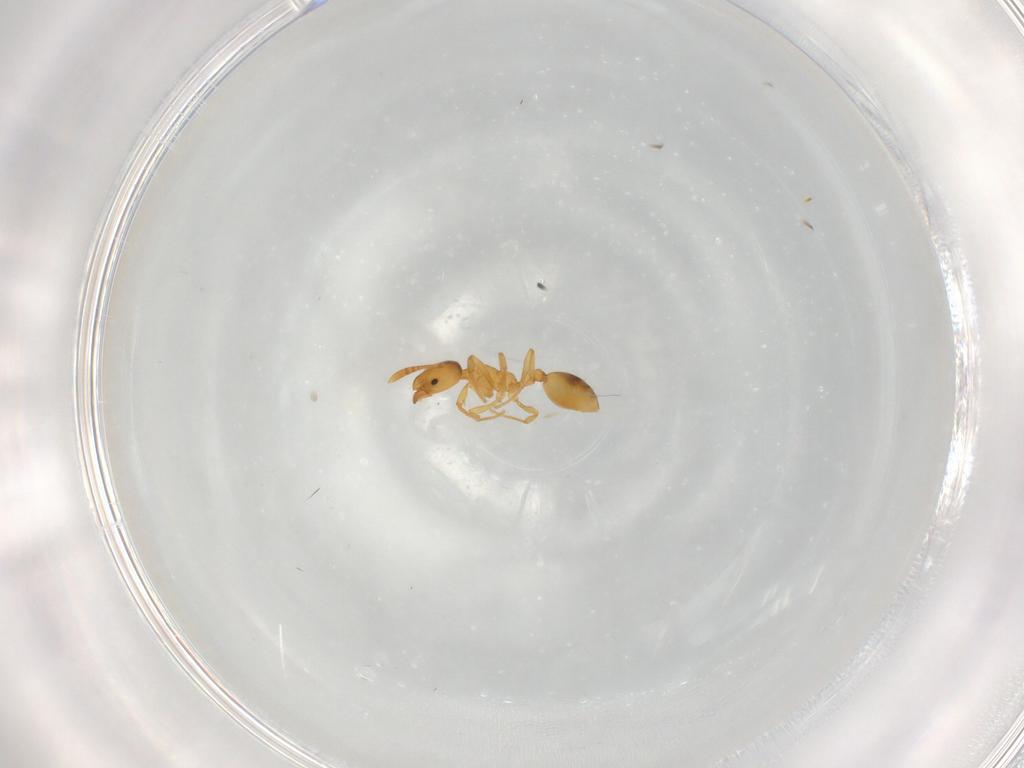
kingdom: Animalia
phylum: Arthropoda
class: Insecta
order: Hymenoptera
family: Formicidae
